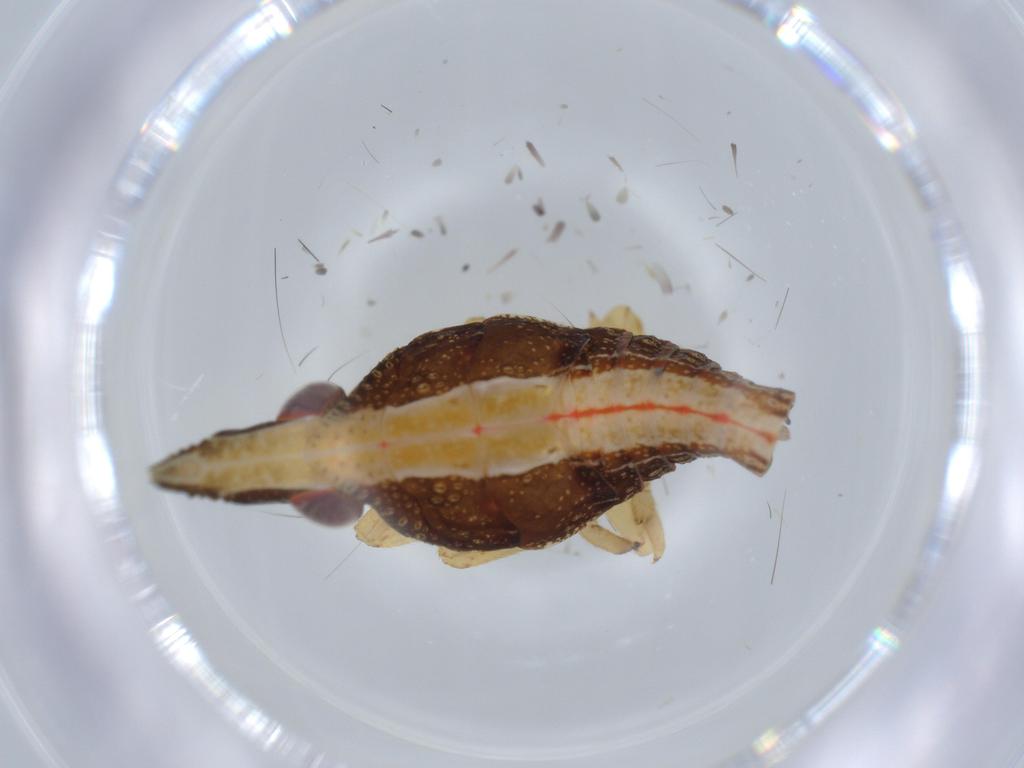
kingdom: Animalia
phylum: Arthropoda
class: Insecta
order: Hemiptera
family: Fulgoroidea_incertae_sedis
